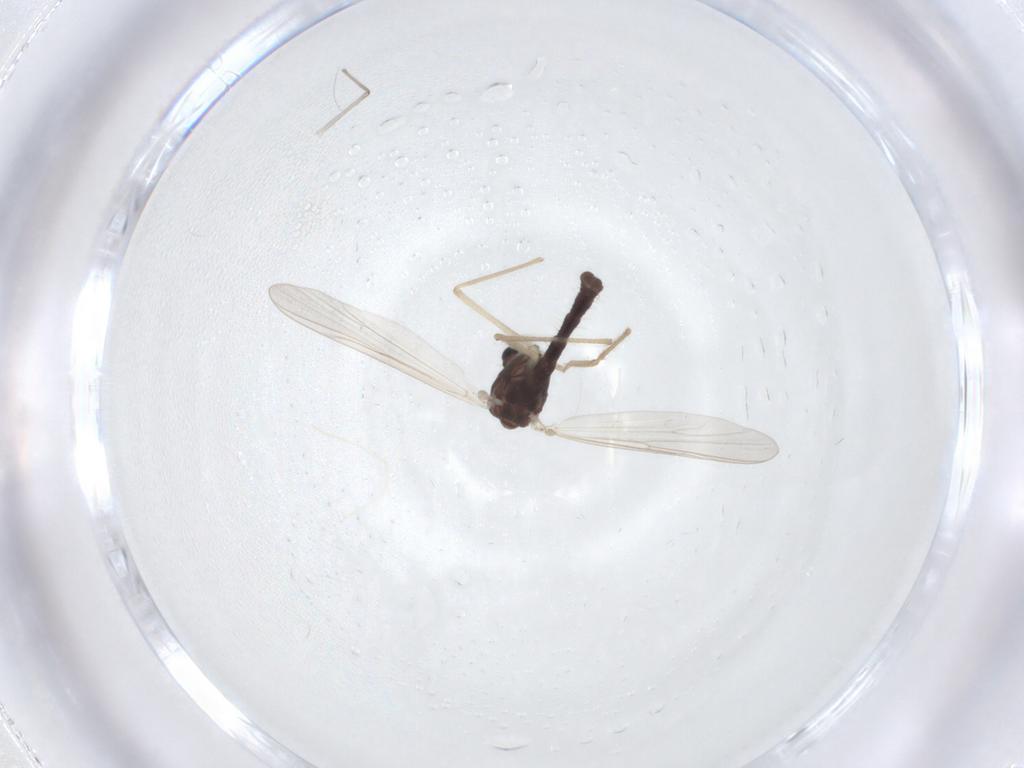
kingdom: Animalia
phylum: Arthropoda
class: Insecta
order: Diptera
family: Chironomidae
